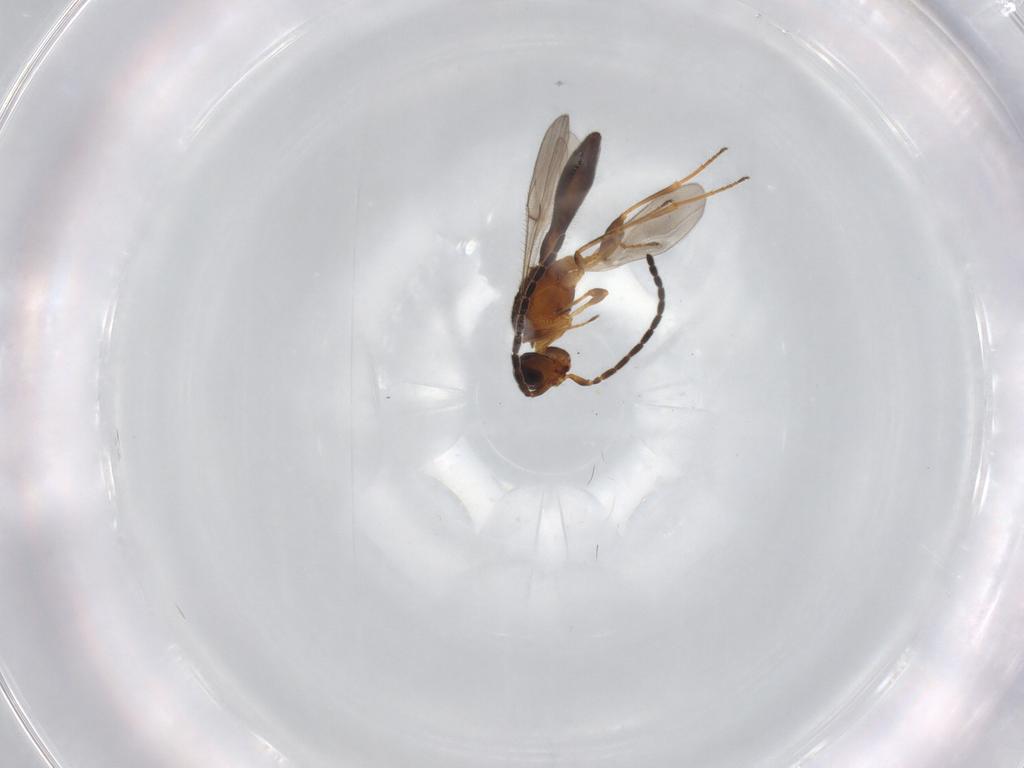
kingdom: Animalia
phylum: Arthropoda
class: Insecta
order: Hymenoptera
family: Scelionidae
